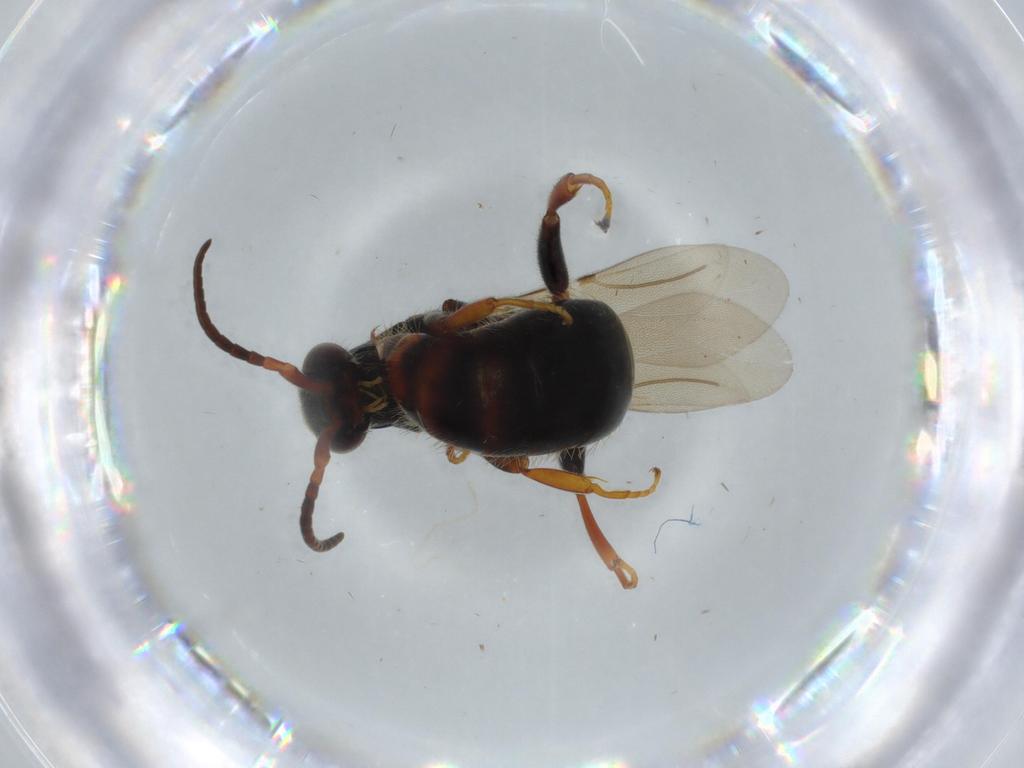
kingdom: Animalia
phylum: Arthropoda
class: Insecta
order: Hymenoptera
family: Bethylidae
